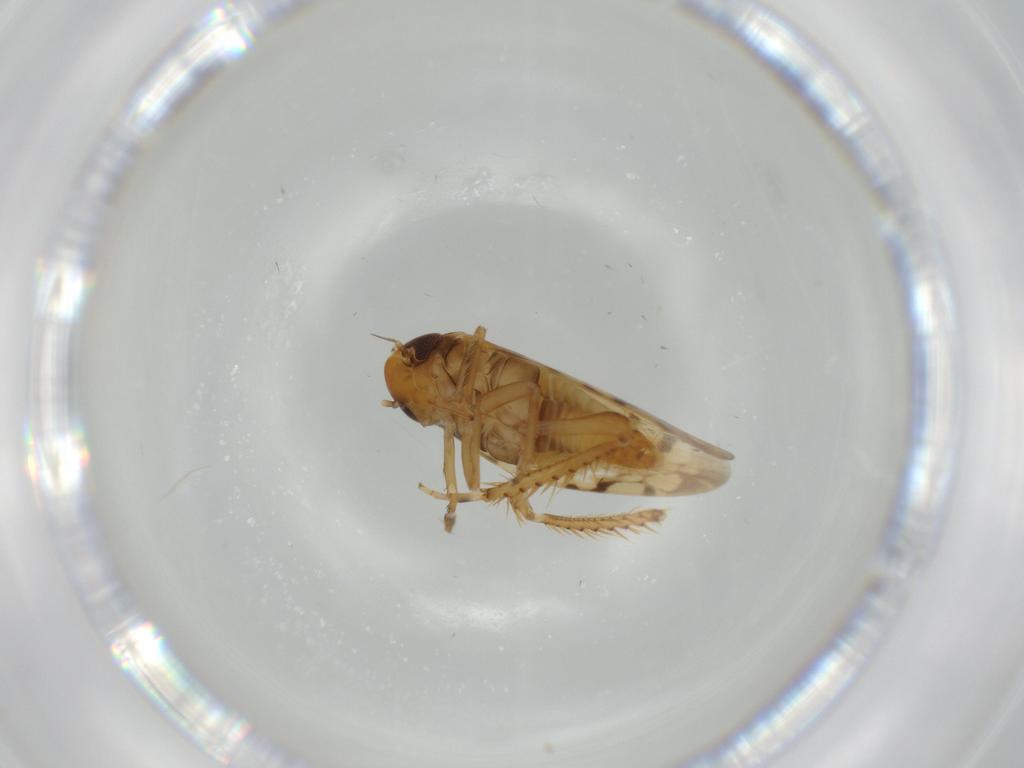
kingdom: Animalia
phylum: Arthropoda
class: Insecta
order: Hemiptera
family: Cicadellidae
